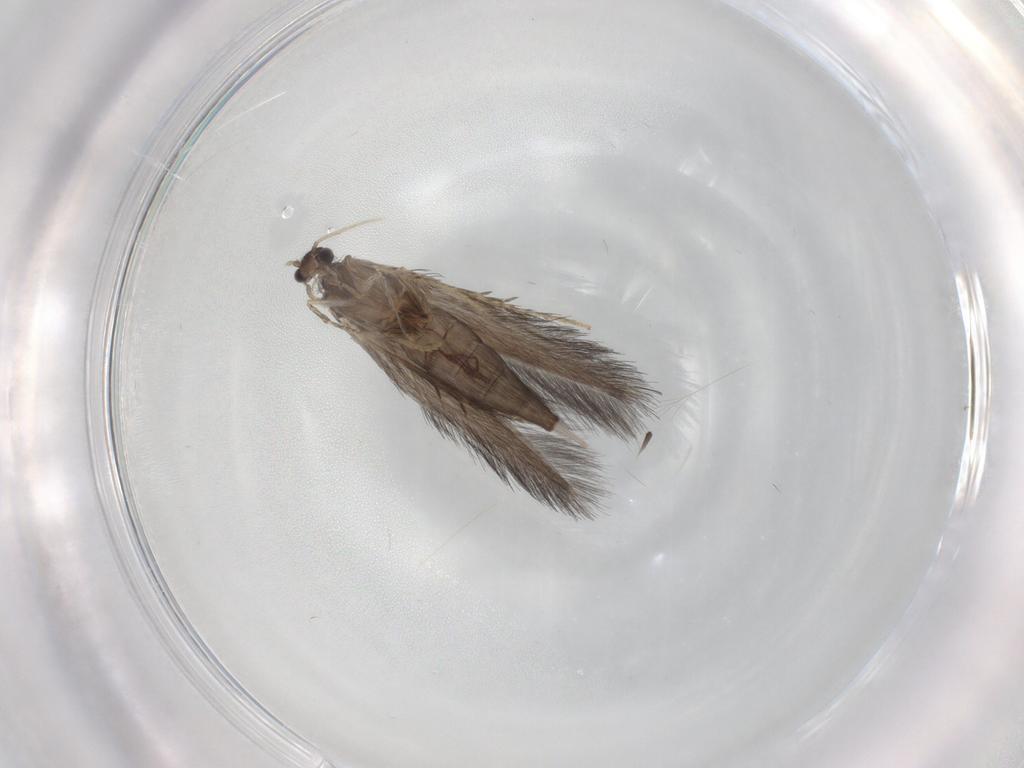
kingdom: Animalia
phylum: Arthropoda
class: Insecta
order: Trichoptera
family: Hydroptilidae
